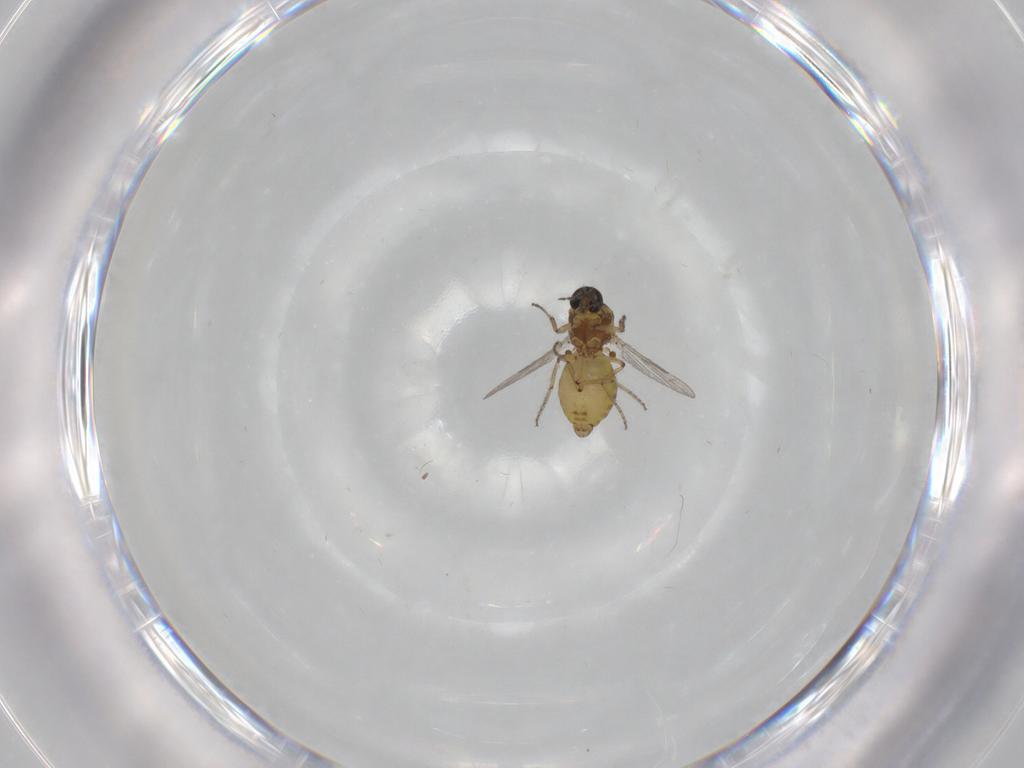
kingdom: Animalia
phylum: Arthropoda
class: Insecta
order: Diptera
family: Ceratopogonidae
